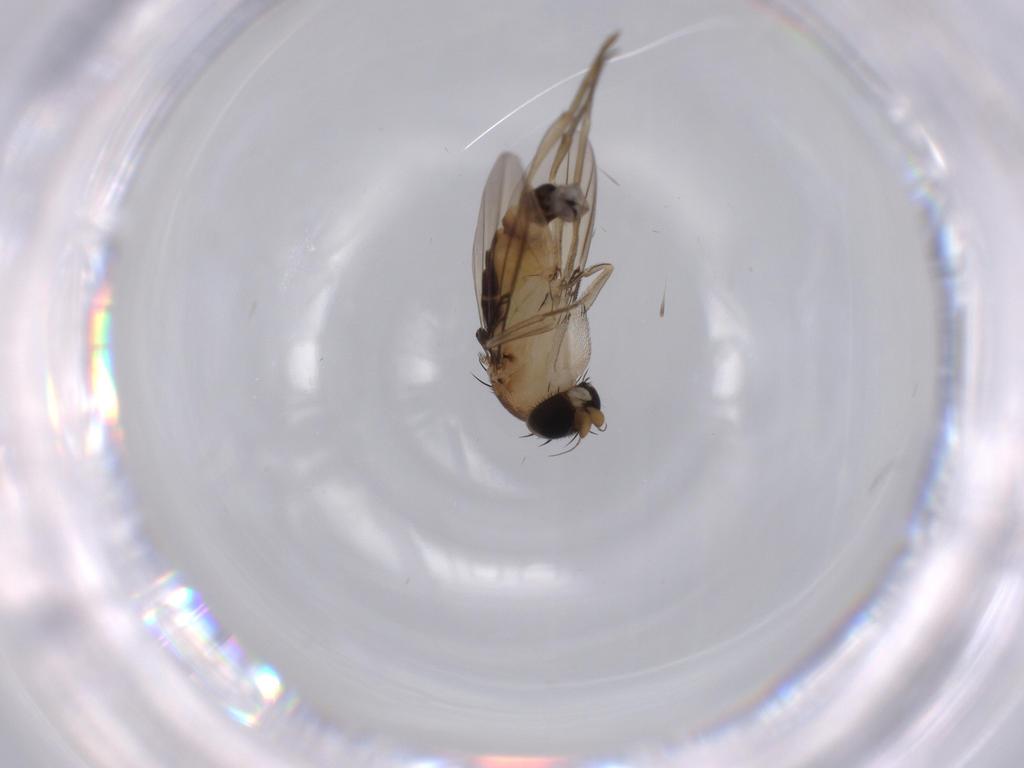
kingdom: Animalia
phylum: Arthropoda
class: Insecta
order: Diptera
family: Phoridae
